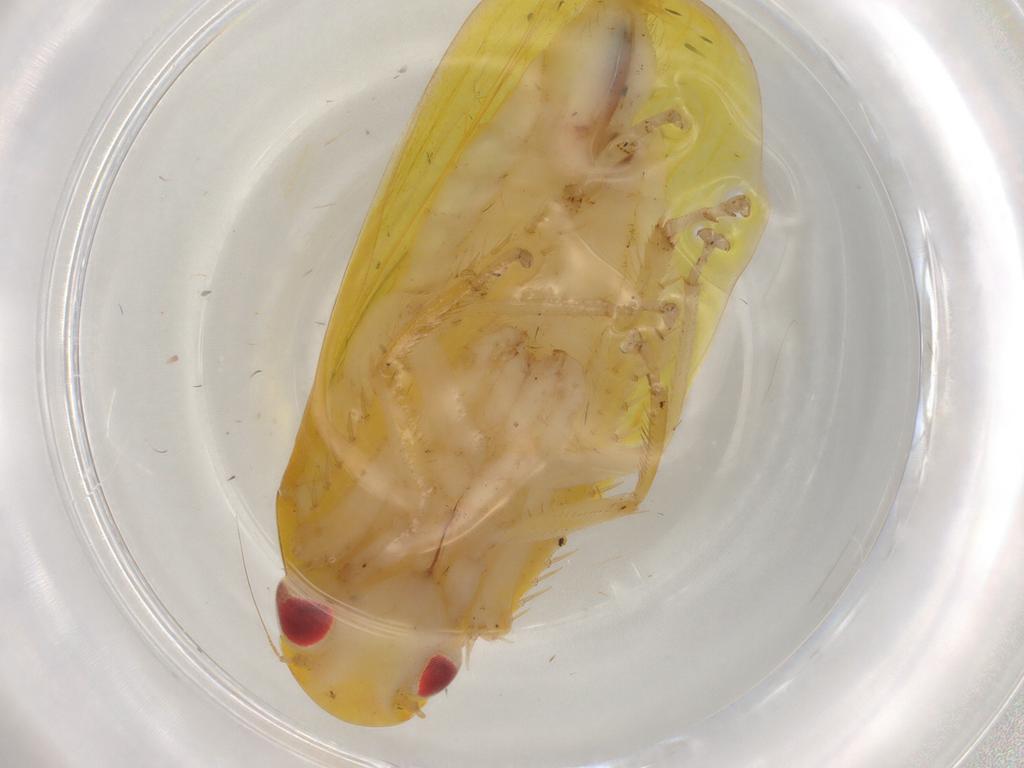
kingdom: Animalia
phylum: Arthropoda
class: Insecta
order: Hemiptera
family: Cicadellidae
